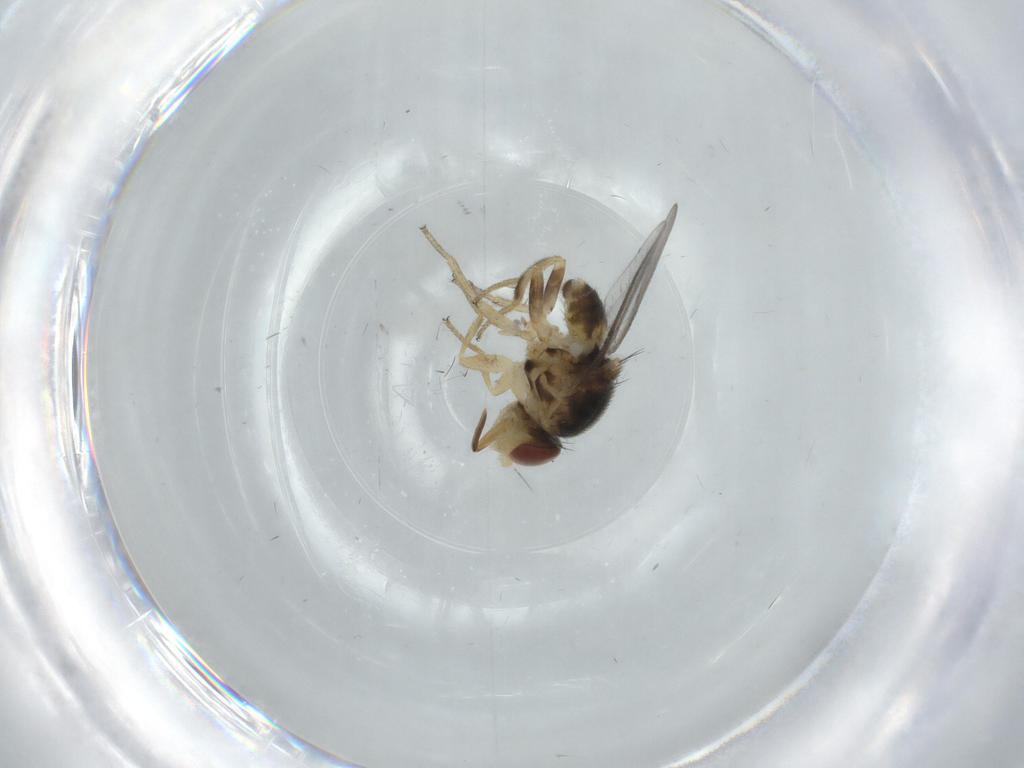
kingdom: Animalia
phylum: Arthropoda
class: Insecta
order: Diptera
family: Chloropidae
